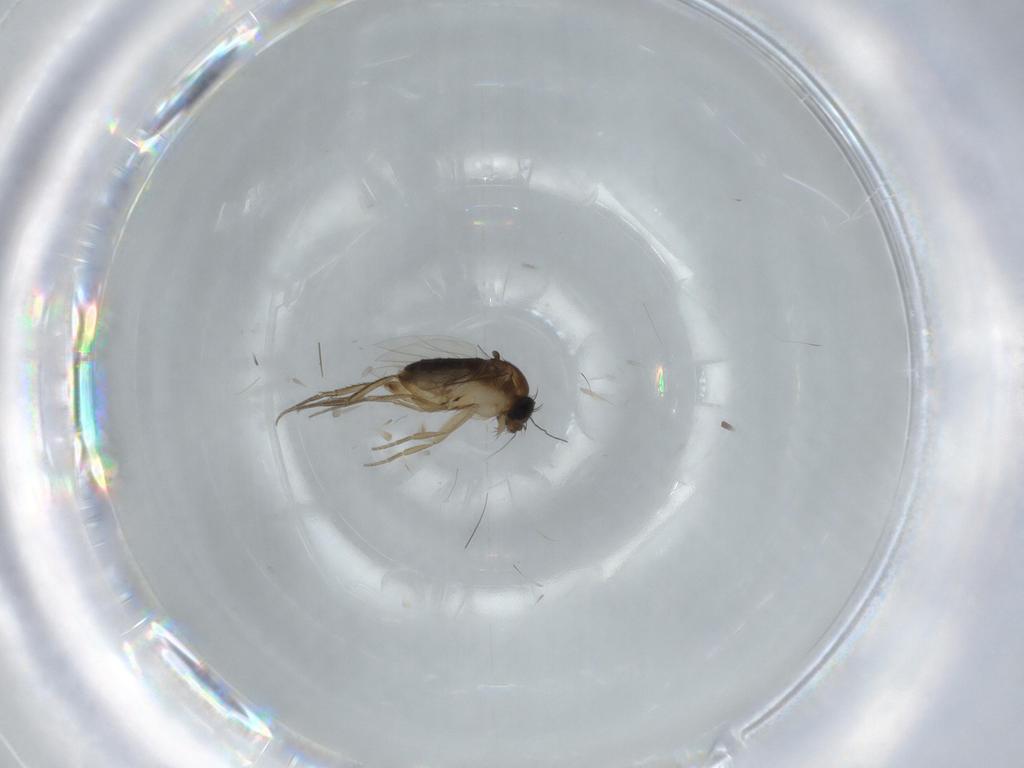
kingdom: Animalia
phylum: Arthropoda
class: Insecta
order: Diptera
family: Phoridae
